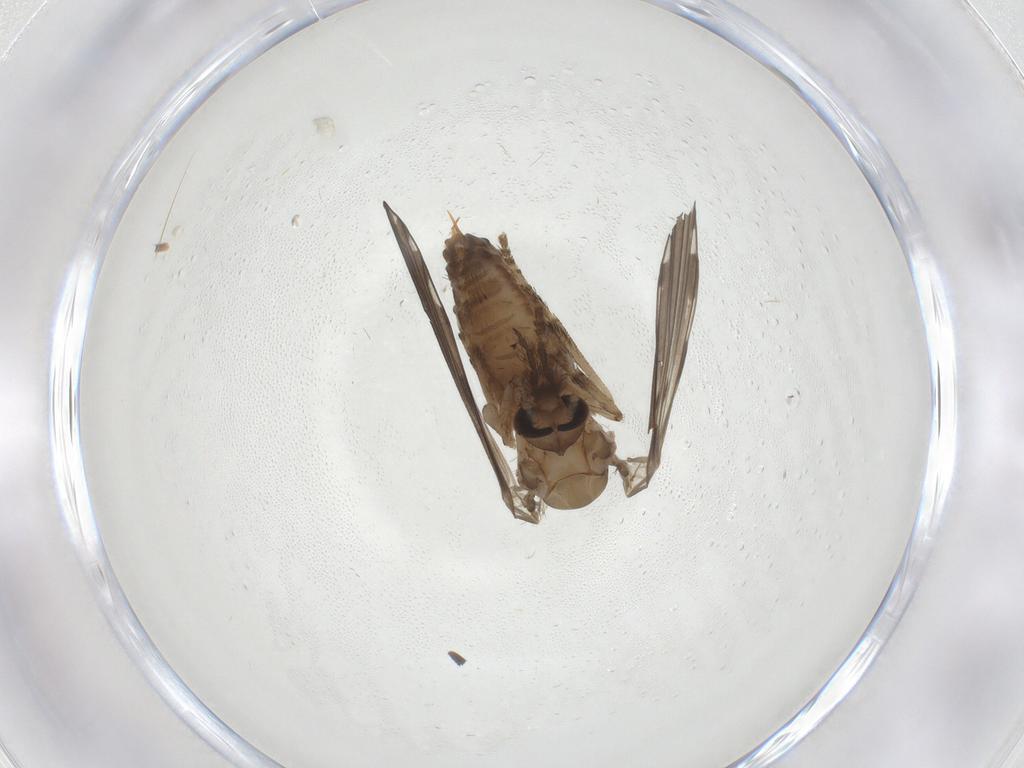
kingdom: Animalia
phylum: Arthropoda
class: Insecta
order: Diptera
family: Psychodidae
